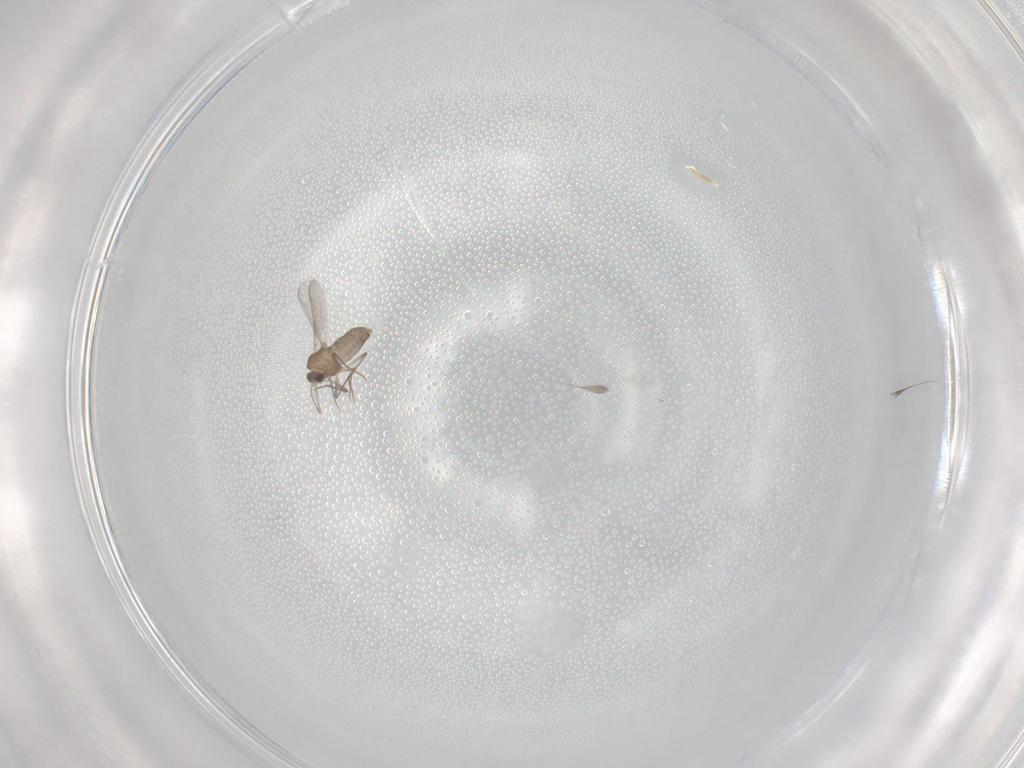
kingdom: Animalia
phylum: Arthropoda
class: Insecta
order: Diptera
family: Chironomidae
